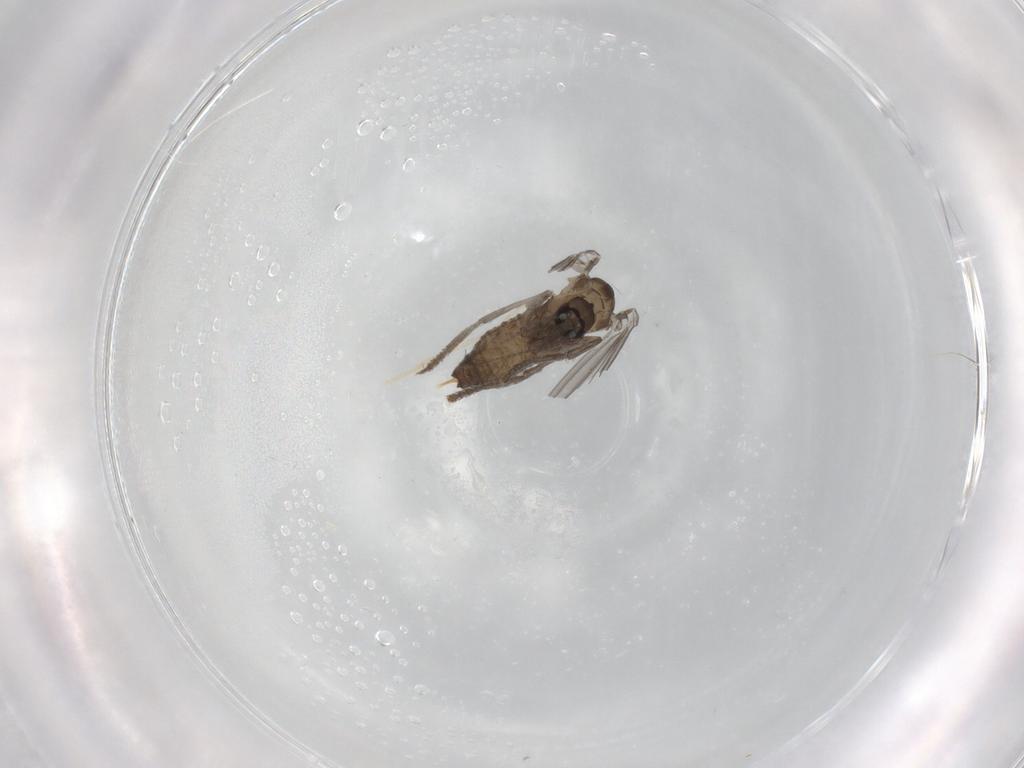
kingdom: Animalia
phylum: Arthropoda
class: Insecta
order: Diptera
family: Psychodidae
